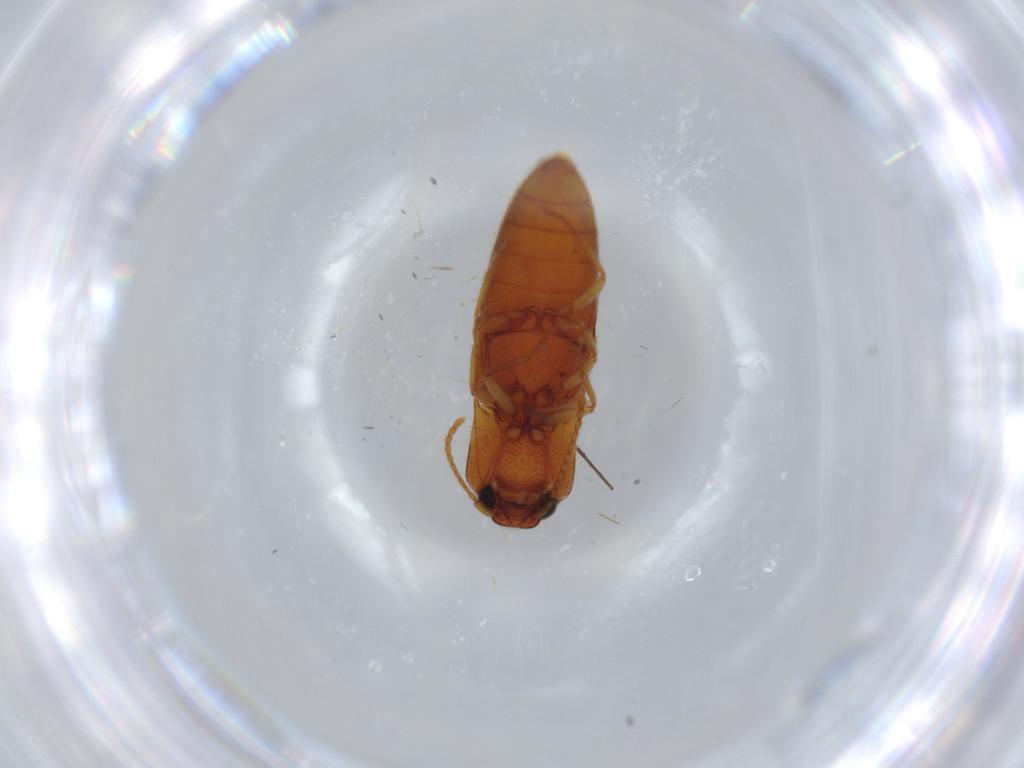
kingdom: Animalia
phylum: Arthropoda
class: Insecta
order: Coleoptera
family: Elateridae
